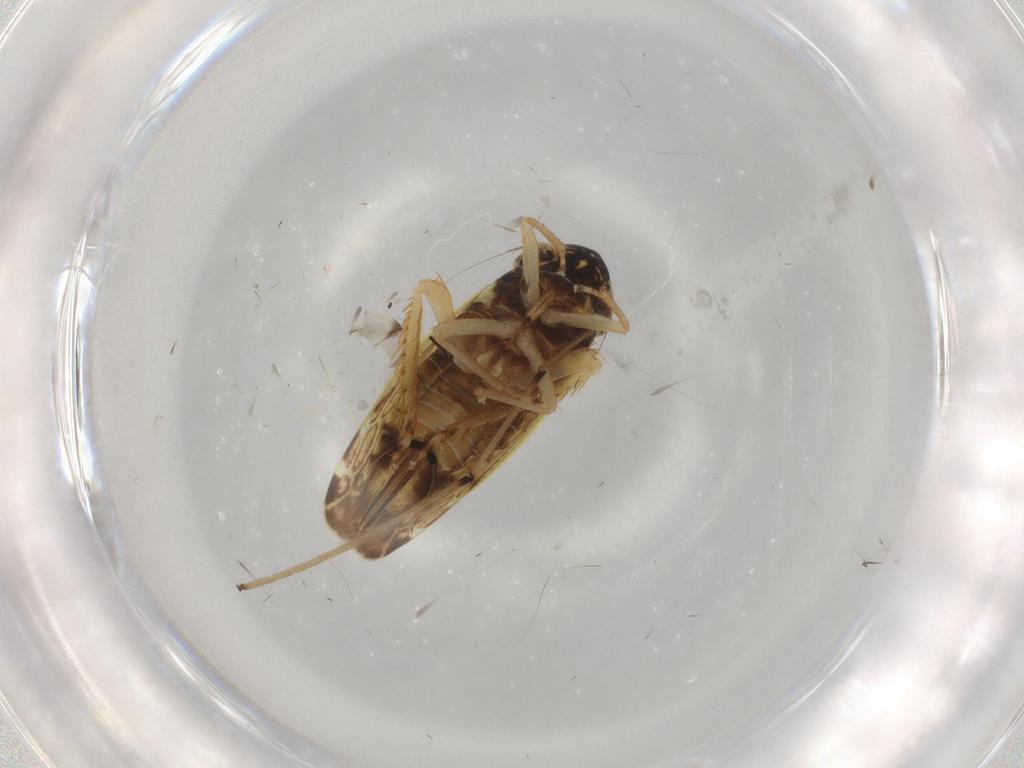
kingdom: Animalia
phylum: Arthropoda
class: Insecta
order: Hemiptera
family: Cicadellidae
